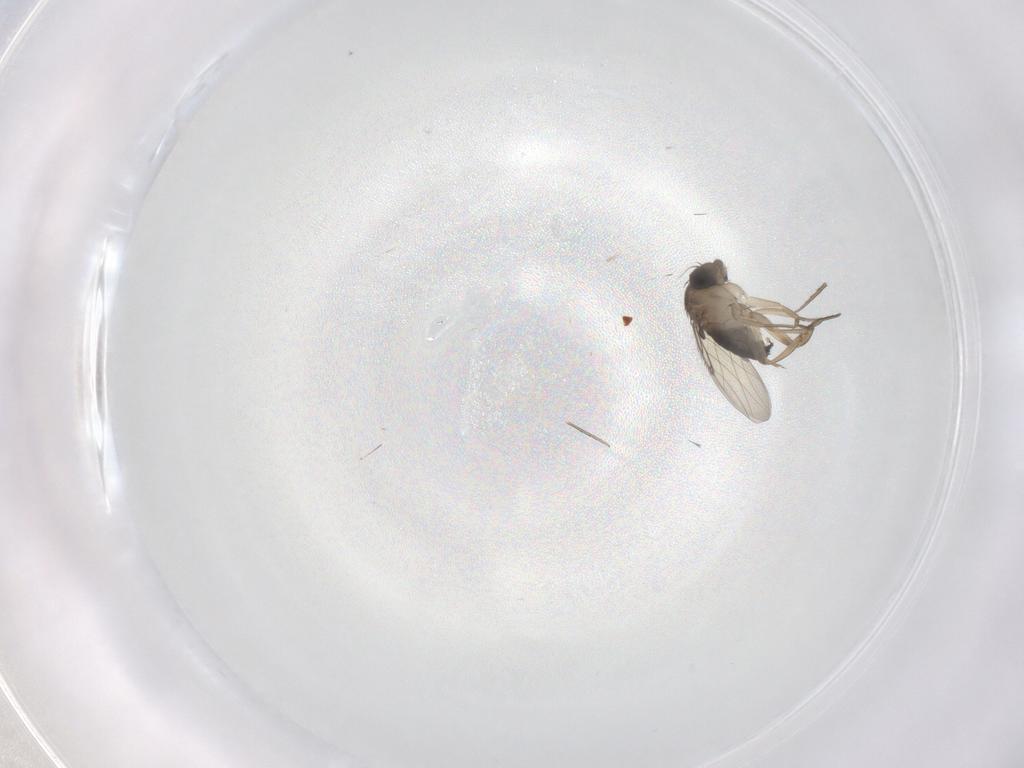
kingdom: Animalia
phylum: Arthropoda
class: Insecta
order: Diptera
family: Phoridae
